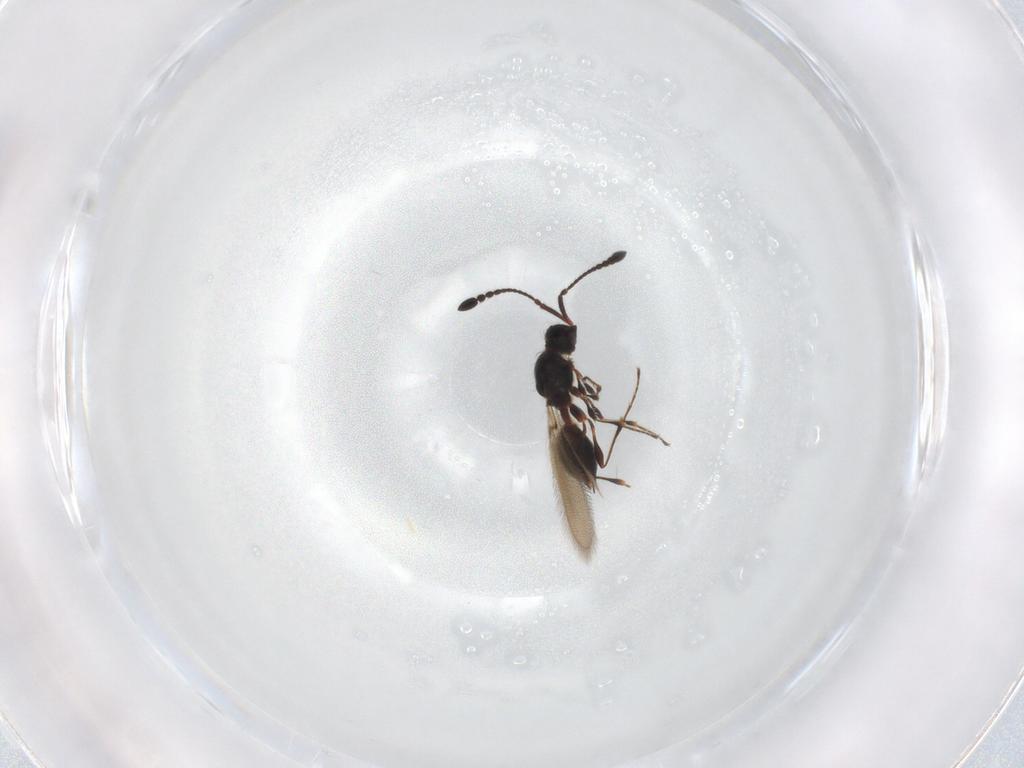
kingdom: Animalia
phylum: Arthropoda
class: Insecta
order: Hymenoptera
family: Diapriidae
